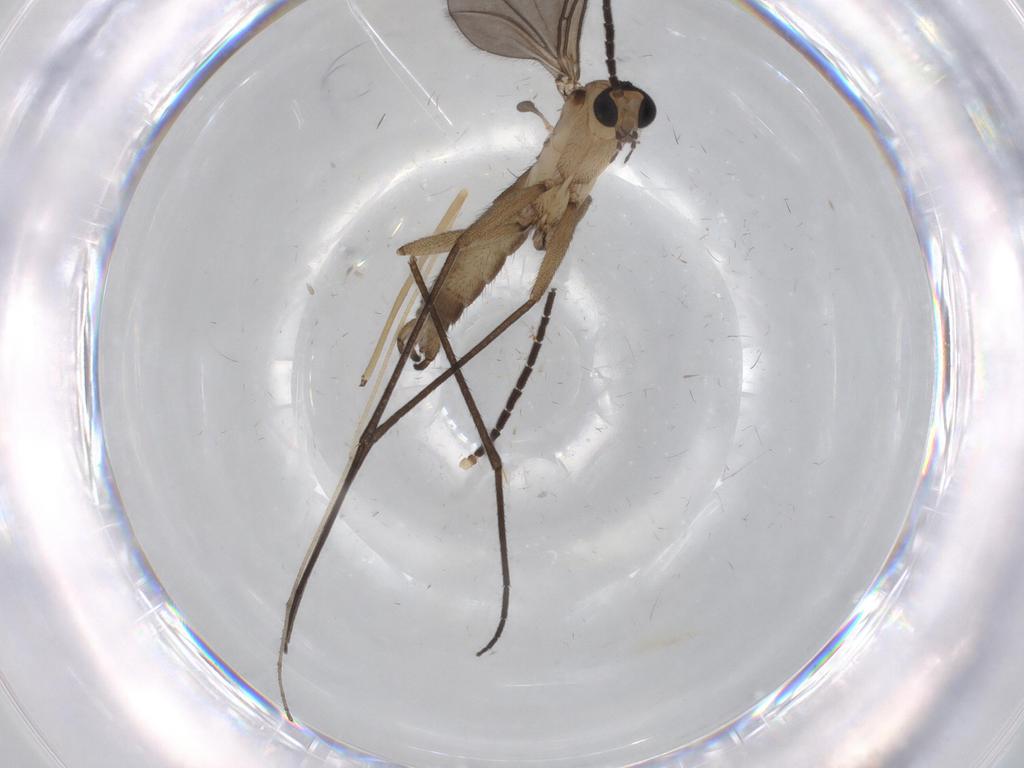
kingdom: Animalia
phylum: Arthropoda
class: Insecta
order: Diptera
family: Sciaridae
